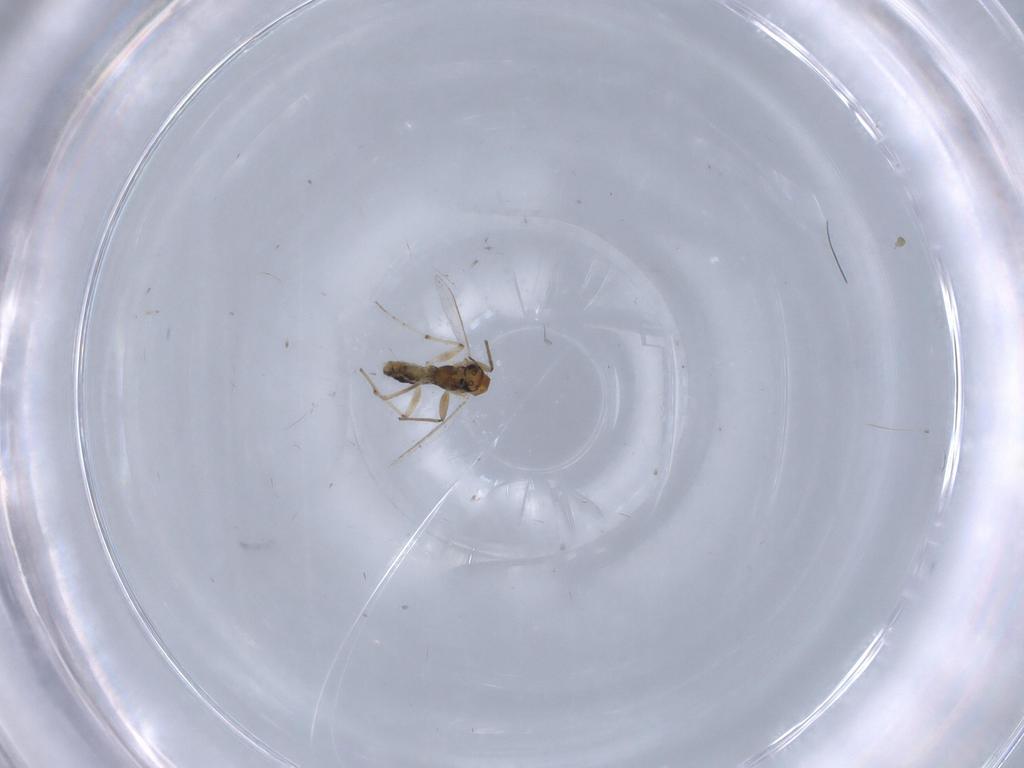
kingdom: Animalia
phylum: Arthropoda
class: Insecta
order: Diptera
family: Chironomidae
